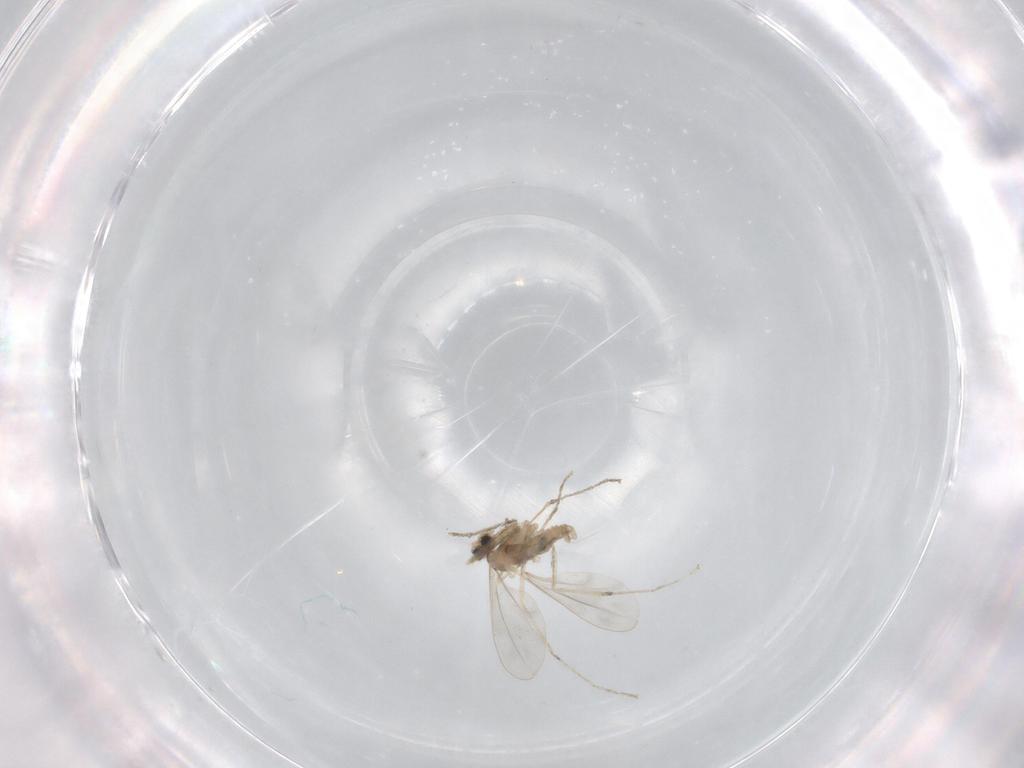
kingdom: Animalia
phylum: Arthropoda
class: Insecta
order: Diptera
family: Cecidomyiidae
